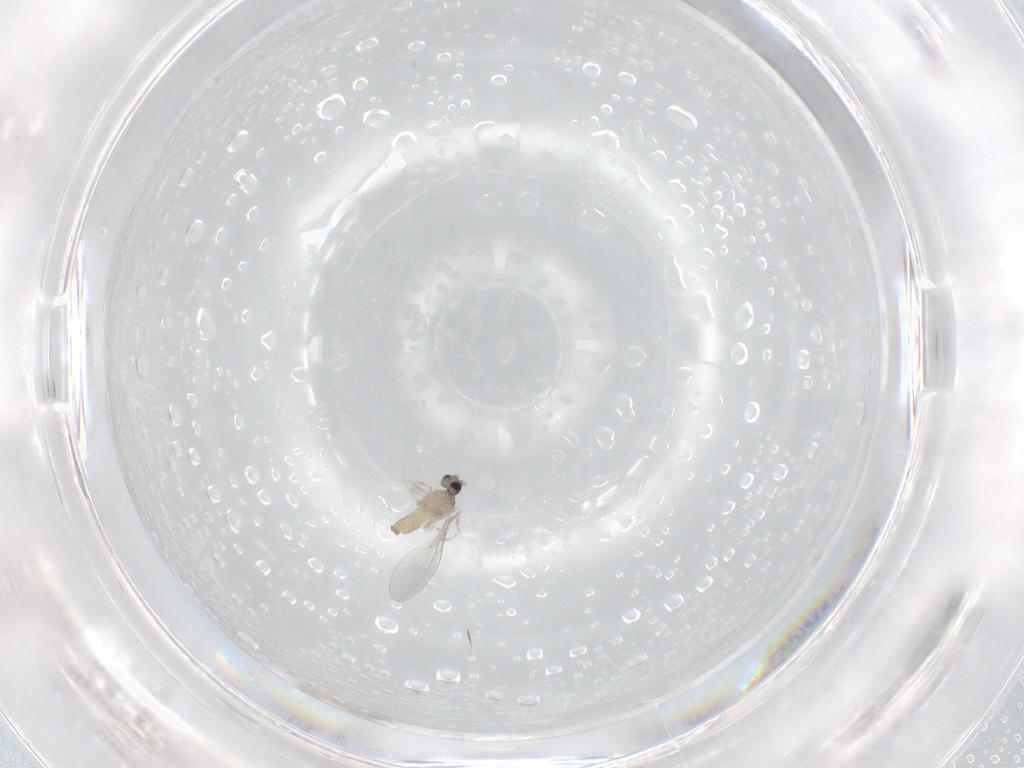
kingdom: Animalia
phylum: Arthropoda
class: Insecta
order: Diptera
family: Cecidomyiidae
